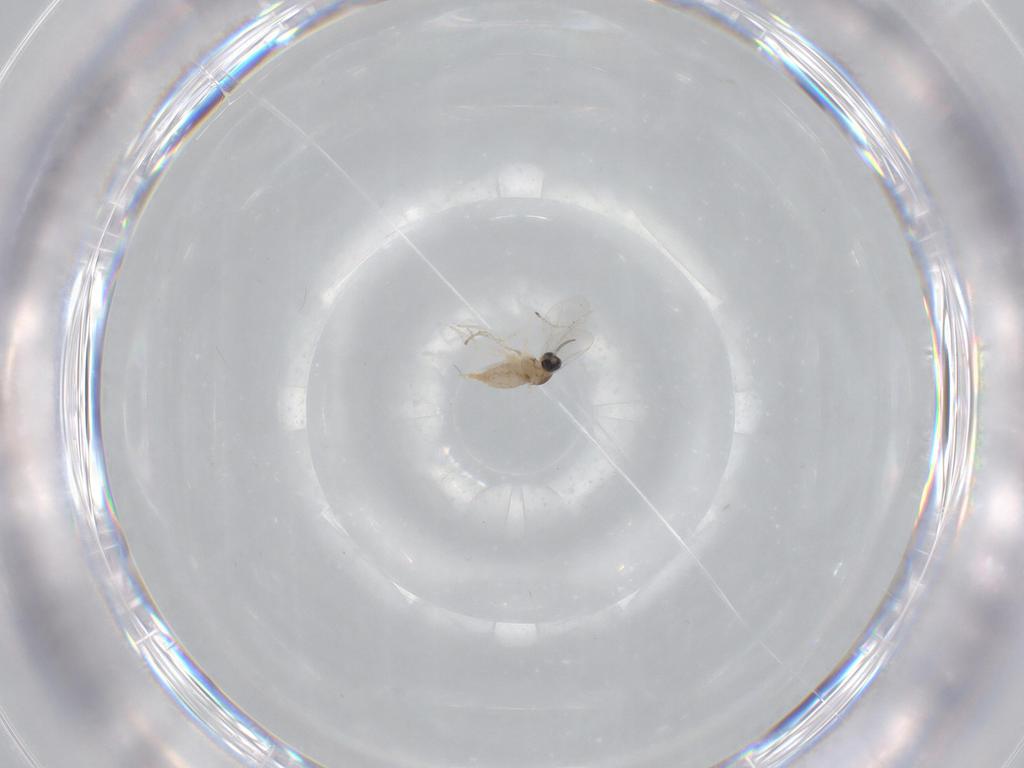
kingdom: Animalia
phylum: Arthropoda
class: Insecta
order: Diptera
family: Cecidomyiidae
